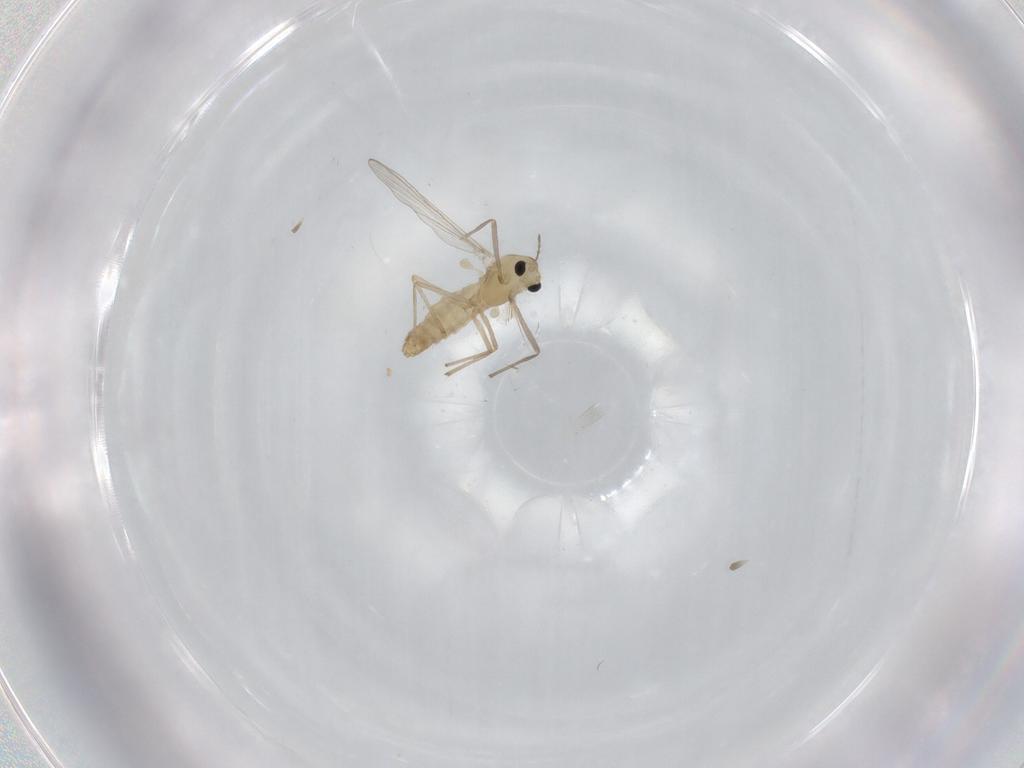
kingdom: Animalia
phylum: Arthropoda
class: Insecta
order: Diptera
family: Chironomidae
